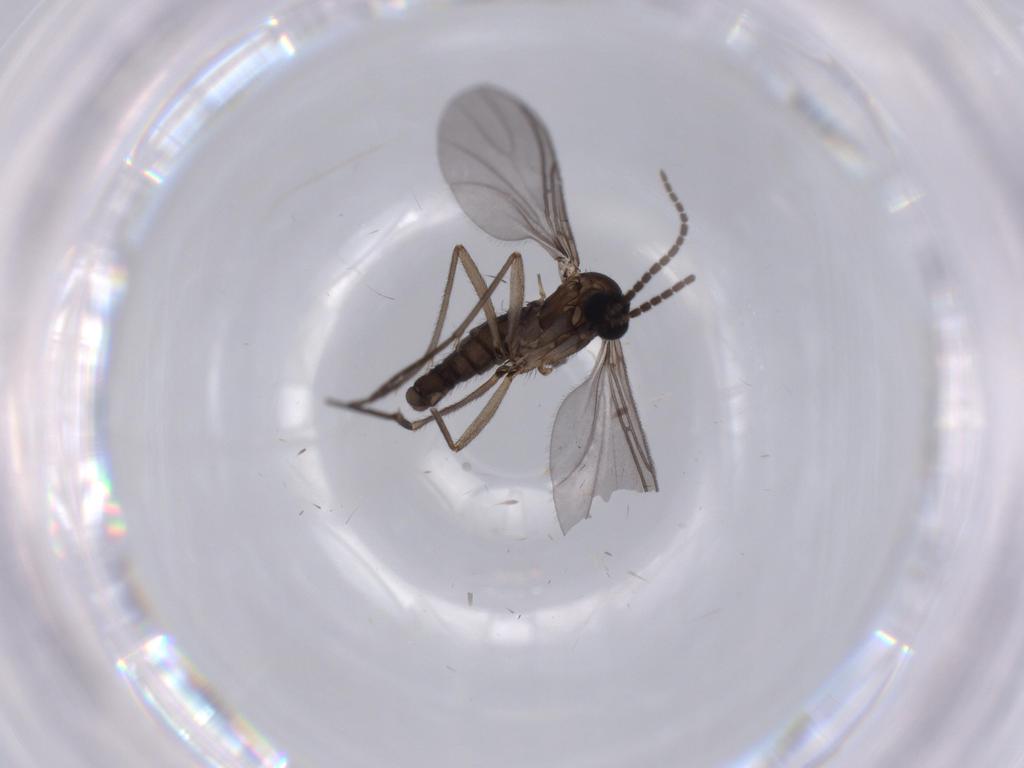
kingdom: Animalia
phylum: Arthropoda
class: Insecta
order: Diptera
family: Sciaridae
